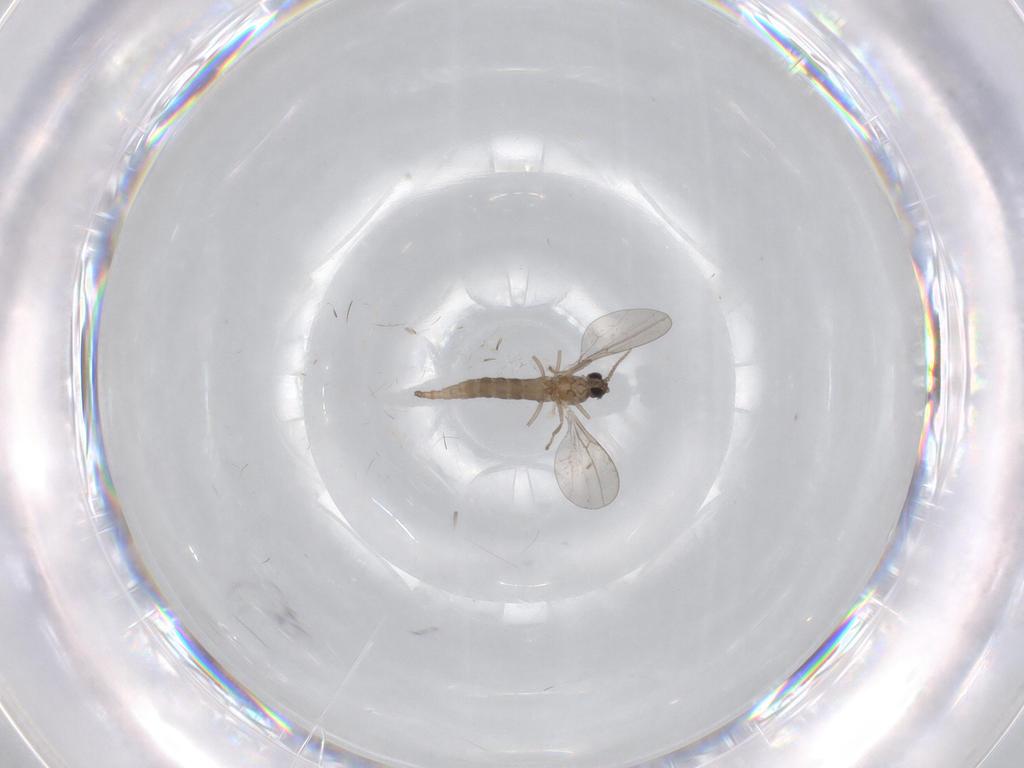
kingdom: Animalia
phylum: Arthropoda
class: Insecta
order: Diptera
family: Cecidomyiidae
